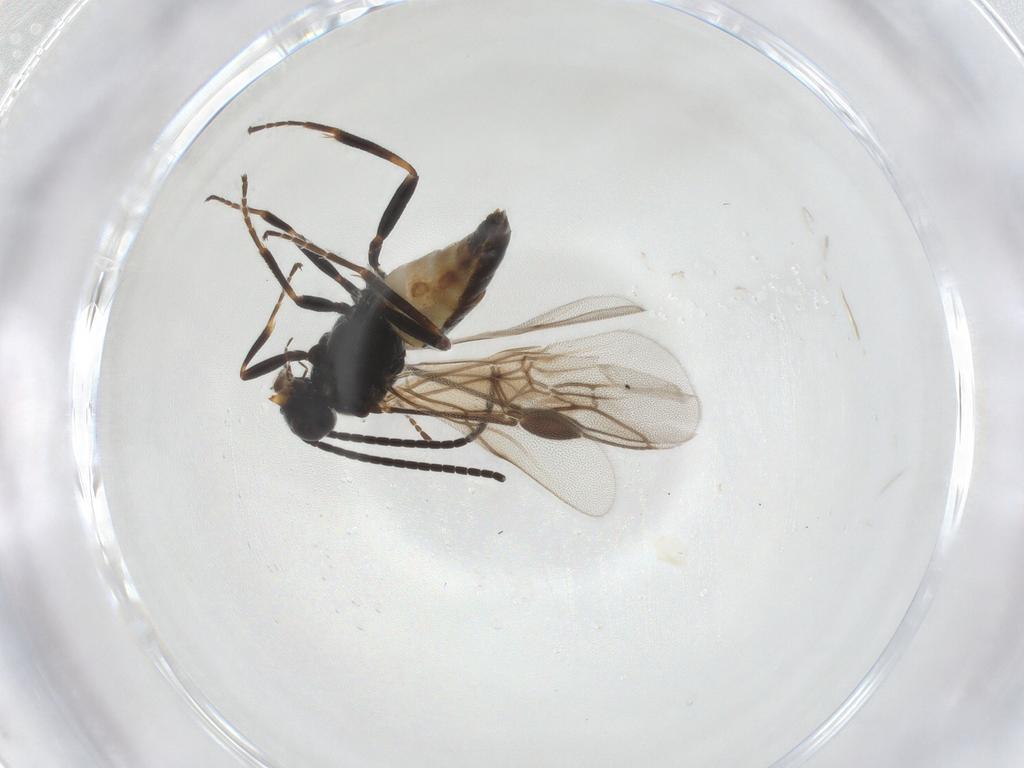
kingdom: Animalia
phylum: Arthropoda
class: Insecta
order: Hymenoptera
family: Braconidae
